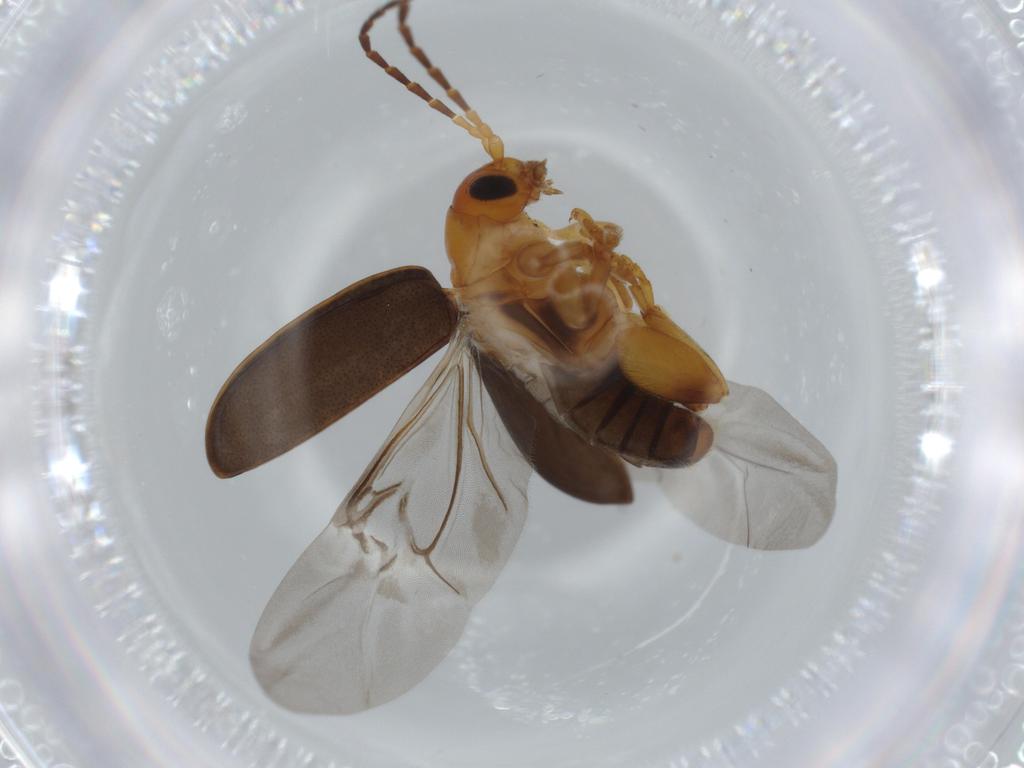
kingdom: Animalia
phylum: Arthropoda
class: Insecta
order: Coleoptera
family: Chrysomelidae
